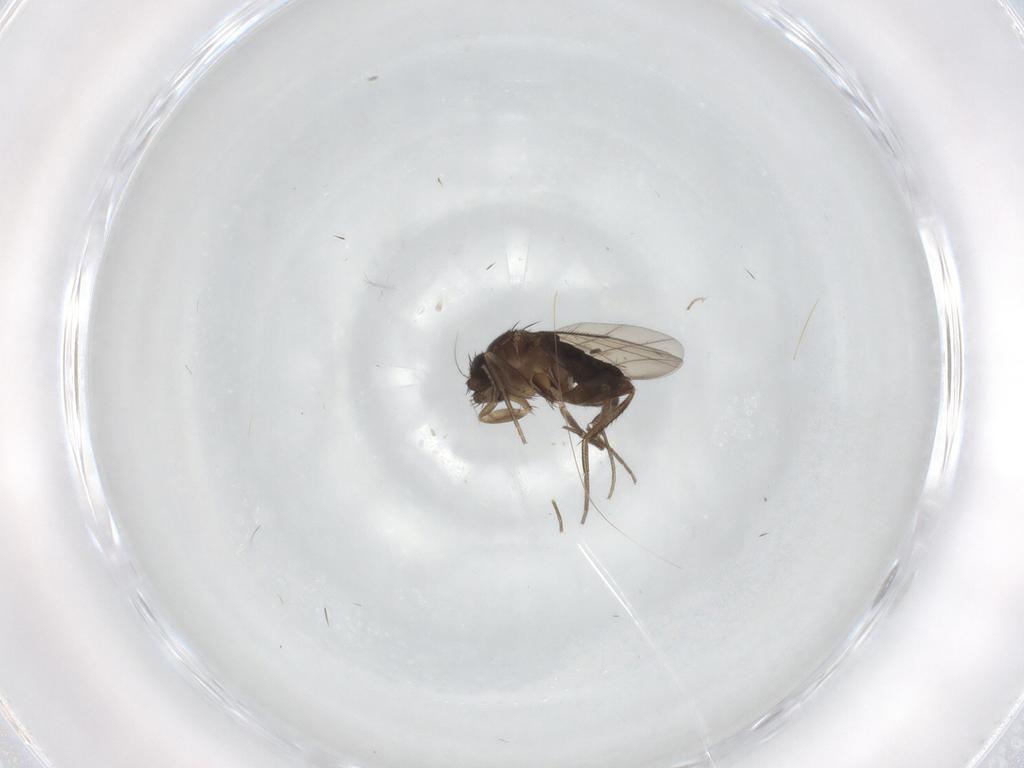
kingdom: Animalia
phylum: Arthropoda
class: Insecta
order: Diptera
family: Phoridae
